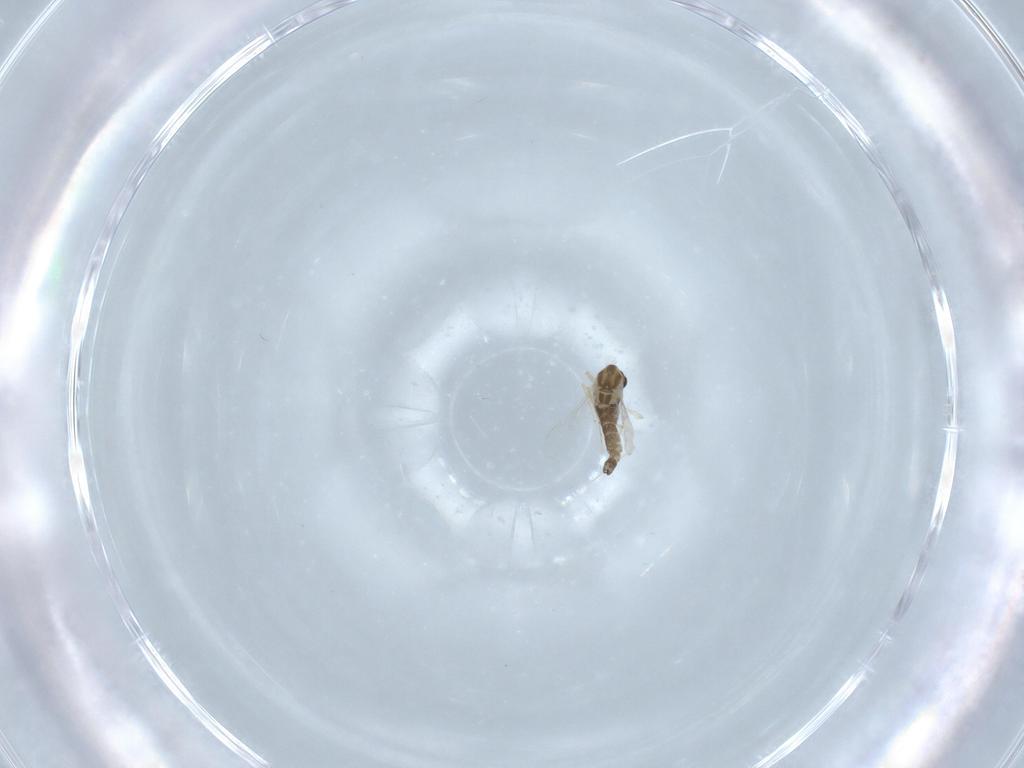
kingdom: Animalia
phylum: Arthropoda
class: Insecta
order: Diptera
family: Chironomidae
